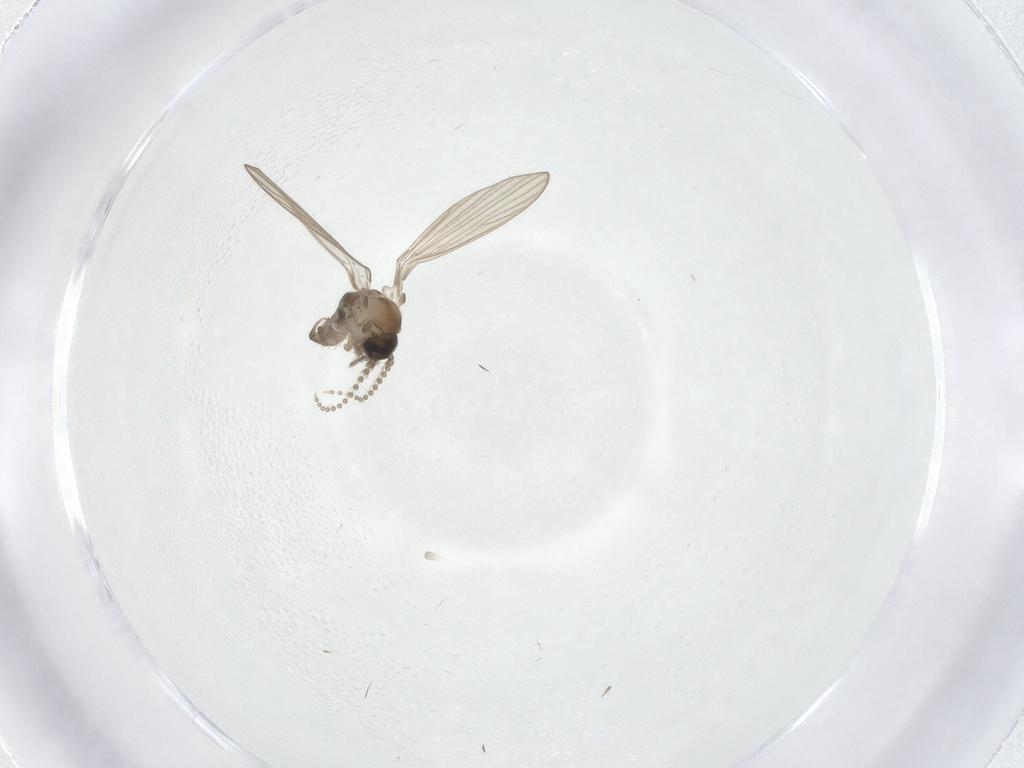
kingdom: Animalia
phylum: Arthropoda
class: Insecta
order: Diptera
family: Psychodidae
